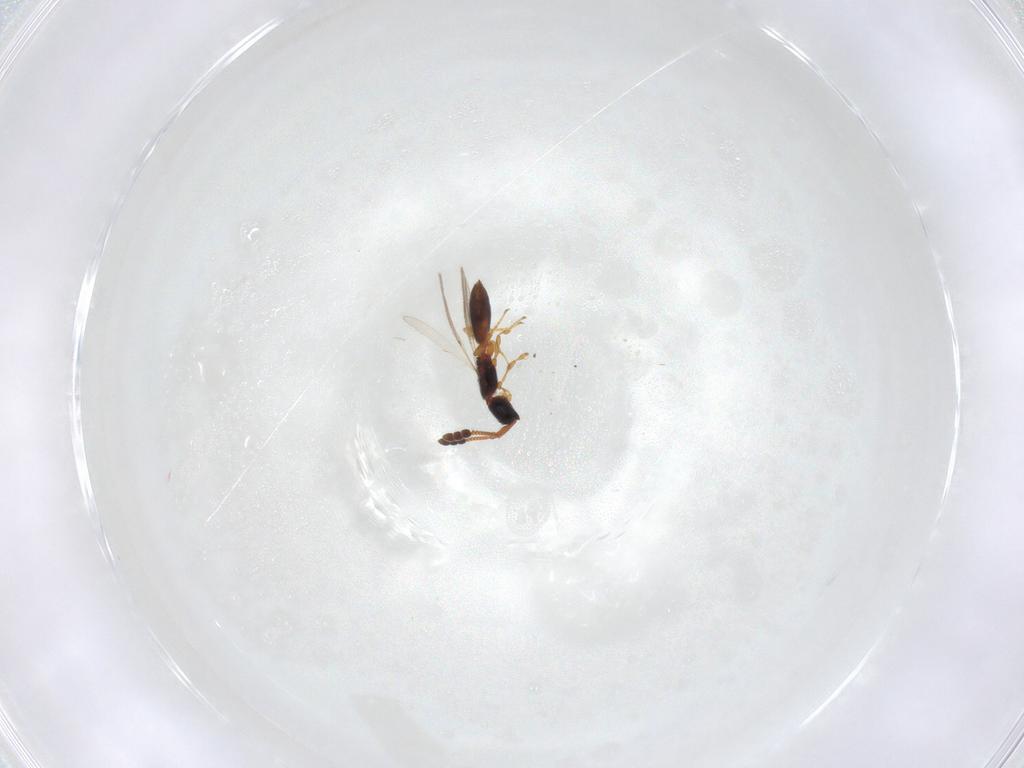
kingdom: Animalia
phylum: Arthropoda
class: Insecta
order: Hymenoptera
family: Diapriidae
